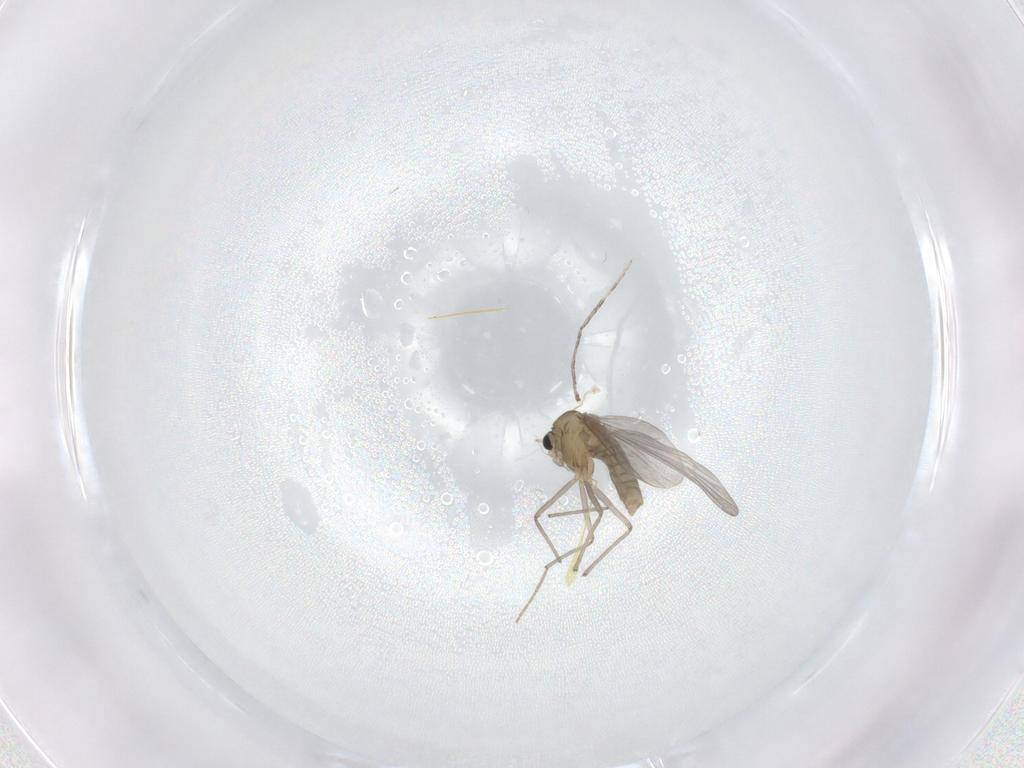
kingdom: Animalia
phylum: Arthropoda
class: Insecta
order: Diptera
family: Chironomidae
